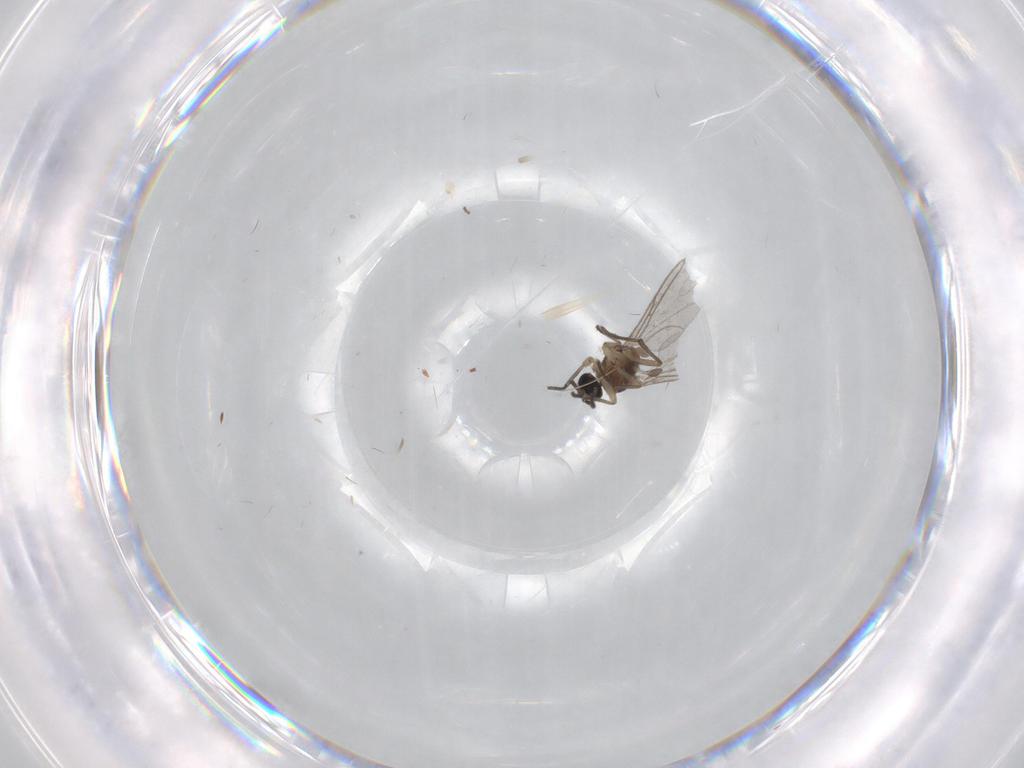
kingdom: Animalia
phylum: Arthropoda
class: Insecta
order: Diptera
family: Sciaridae
